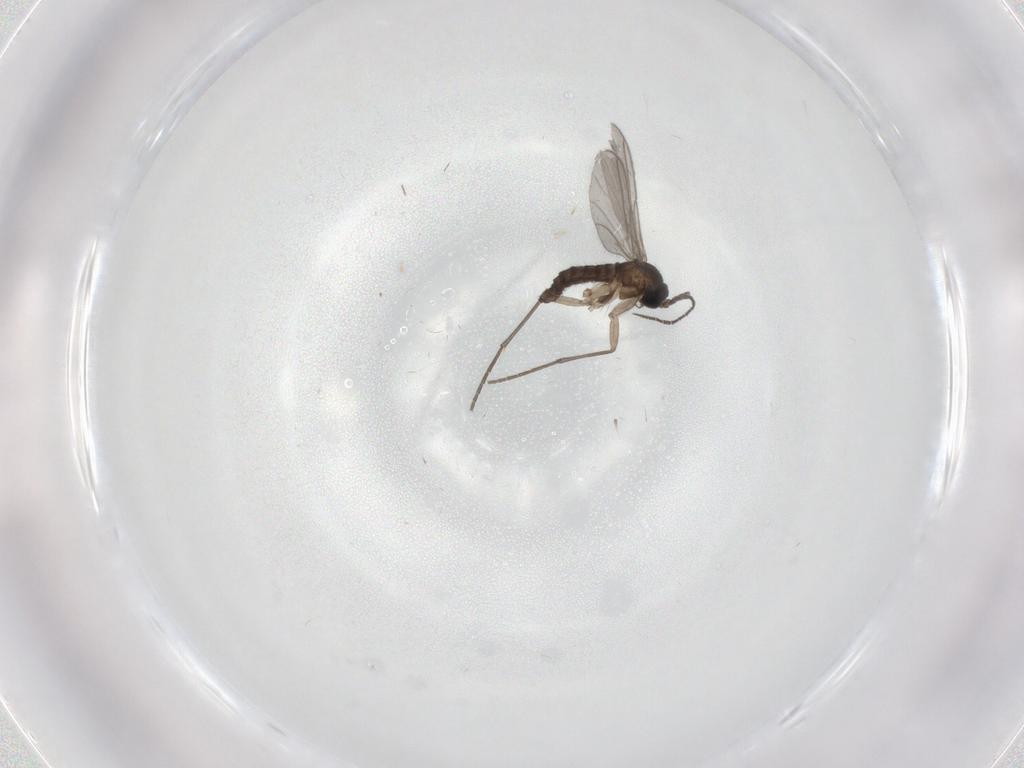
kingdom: Animalia
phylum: Arthropoda
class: Insecta
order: Diptera
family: Sciaridae
